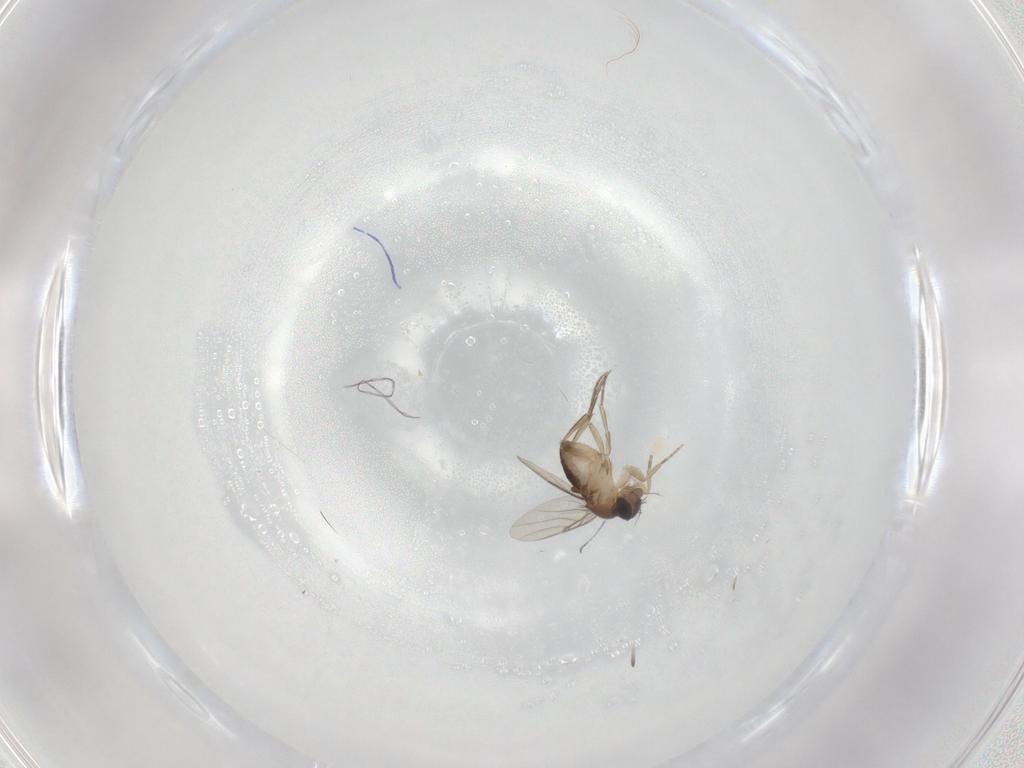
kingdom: Animalia
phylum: Arthropoda
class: Insecta
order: Diptera
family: Phoridae
